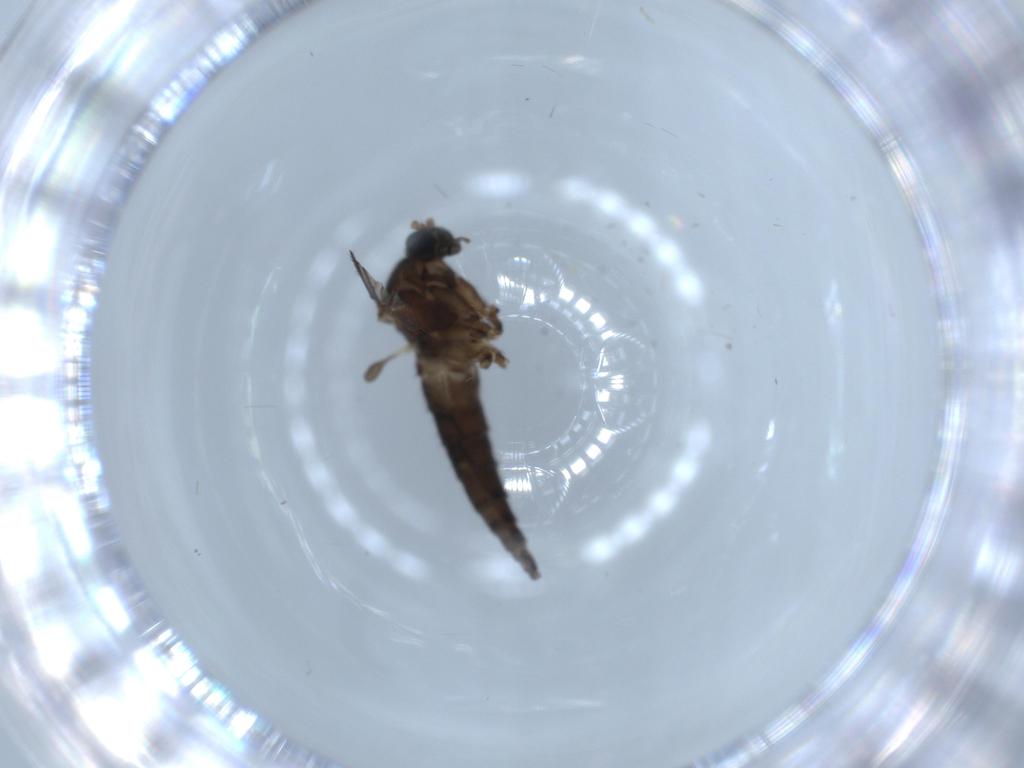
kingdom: Animalia
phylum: Arthropoda
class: Insecta
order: Diptera
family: Sciaridae
